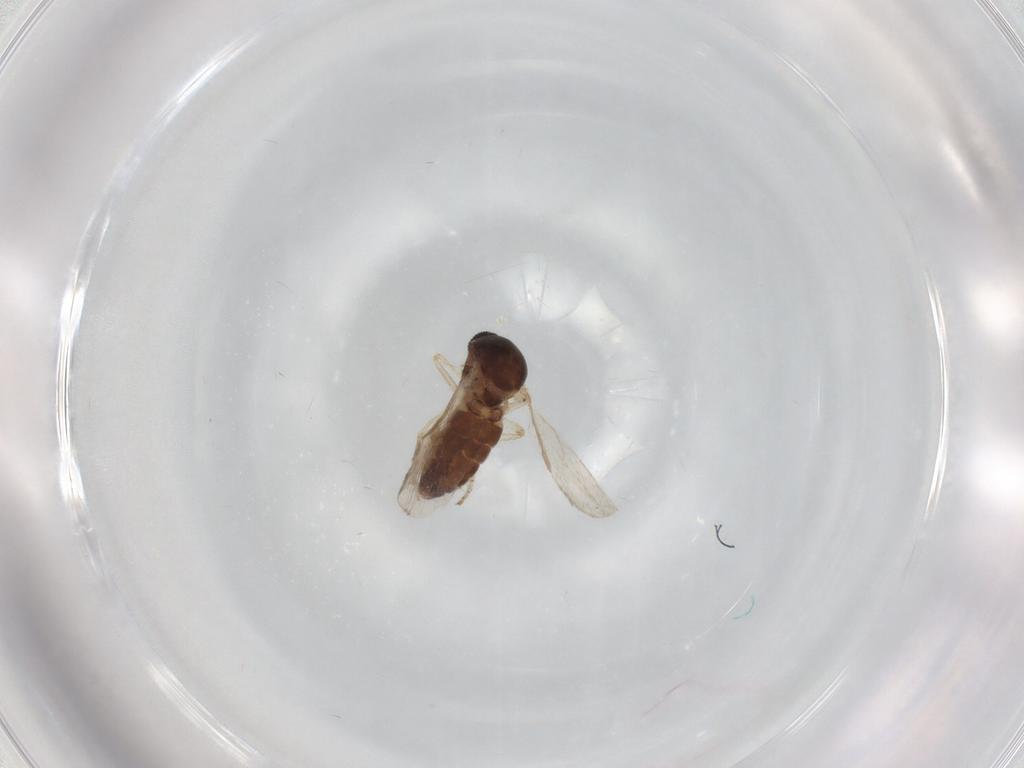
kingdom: Animalia
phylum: Arthropoda
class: Insecta
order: Diptera
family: Ceratopogonidae
